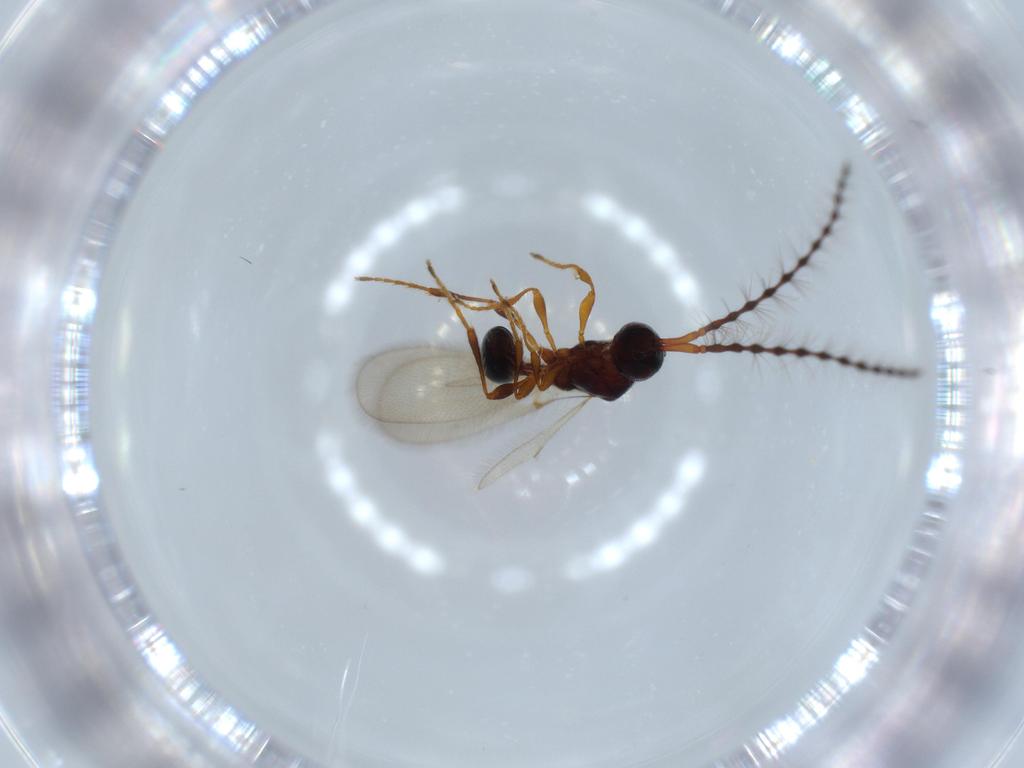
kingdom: Animalia
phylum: Arthropoda
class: Insecta
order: Hymenoptera
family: Diapriidae
